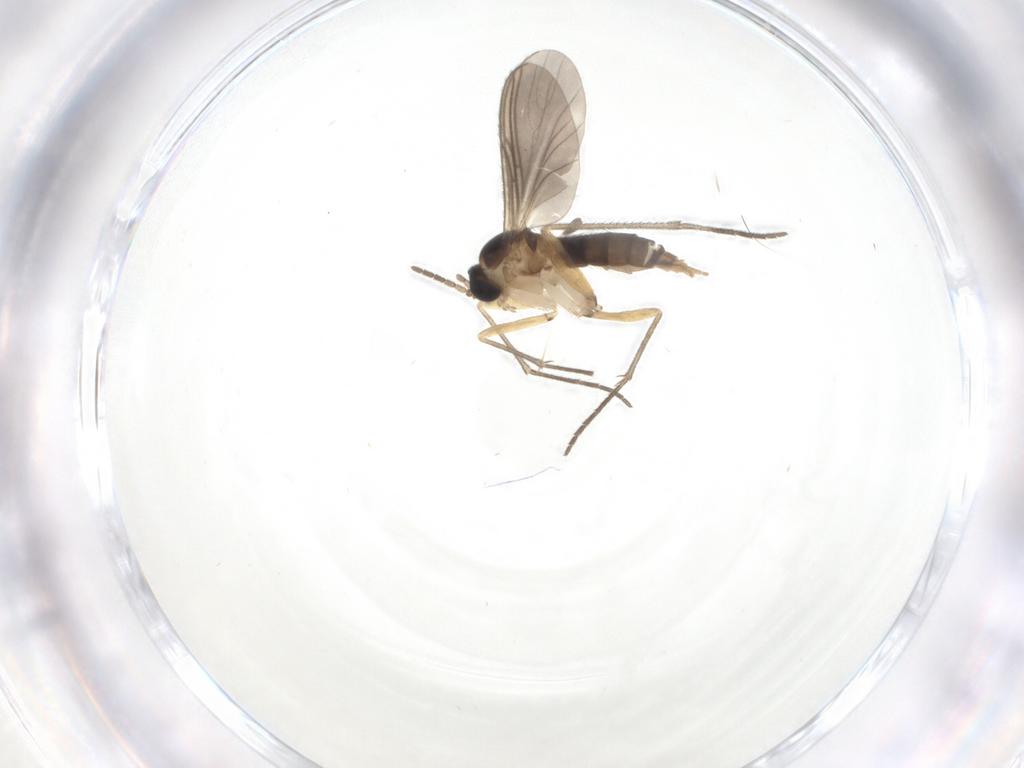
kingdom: Animalia
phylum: Arthropoda
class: Insecta
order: Diptera
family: Sciaridae
